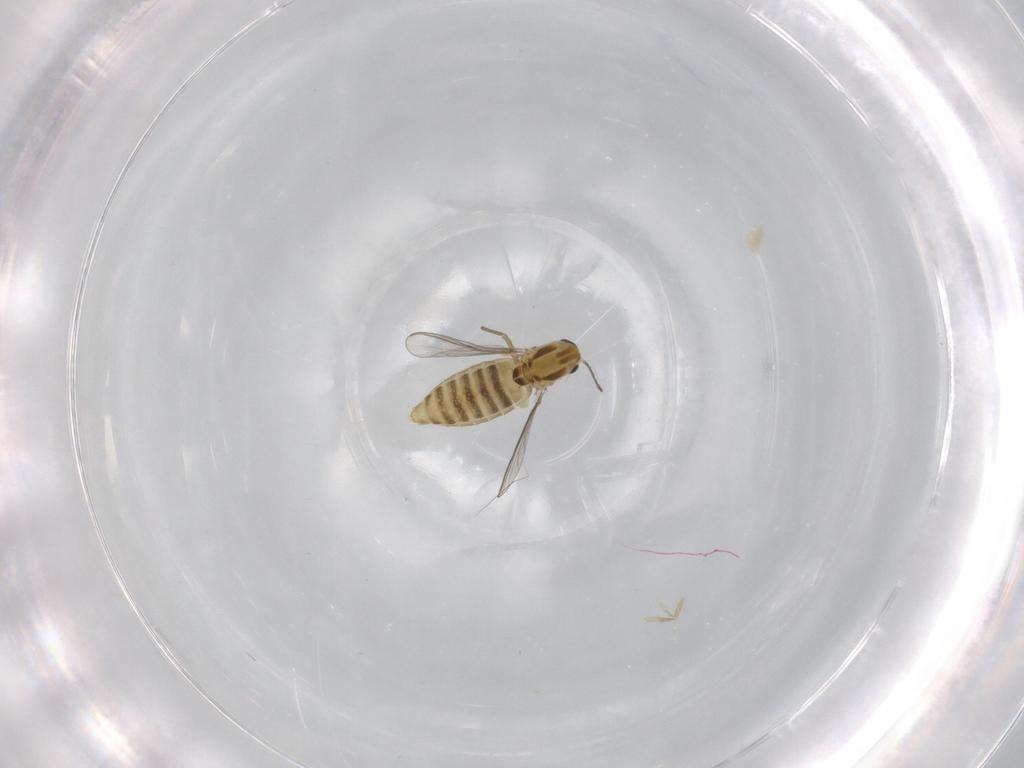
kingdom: Animalia
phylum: Arthropoda
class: Insecta
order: Diptera
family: Chironomidae
